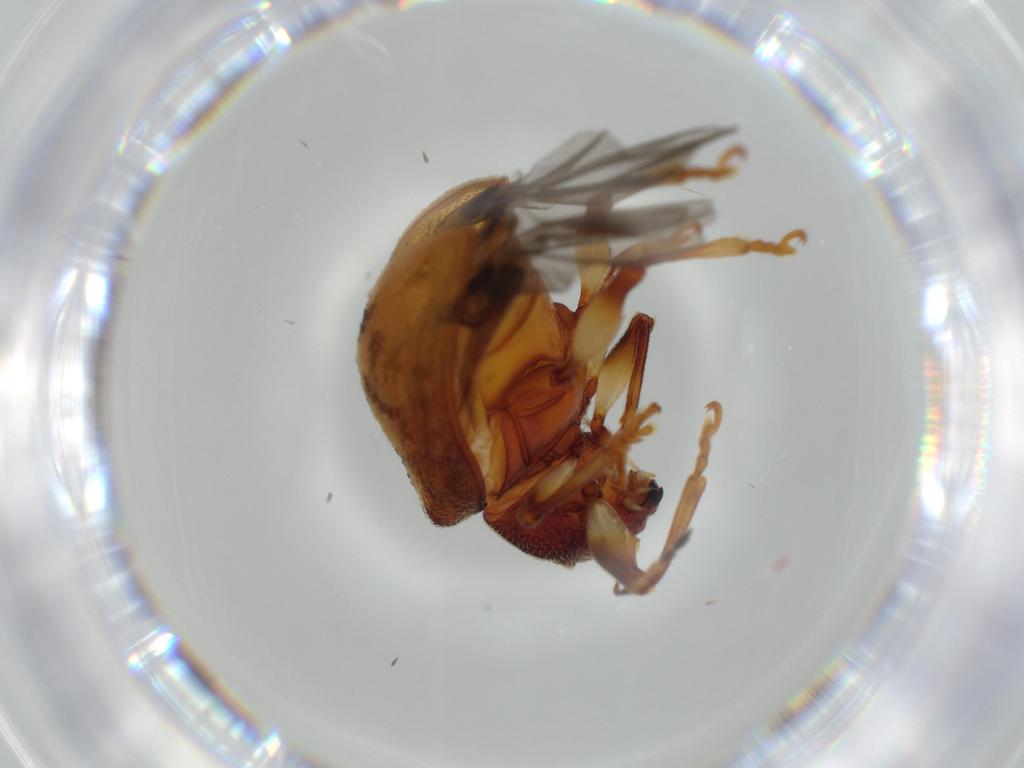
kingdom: Animalia
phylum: Arthropoda
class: Insecta
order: Coleoptera
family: Chrysomelidae
